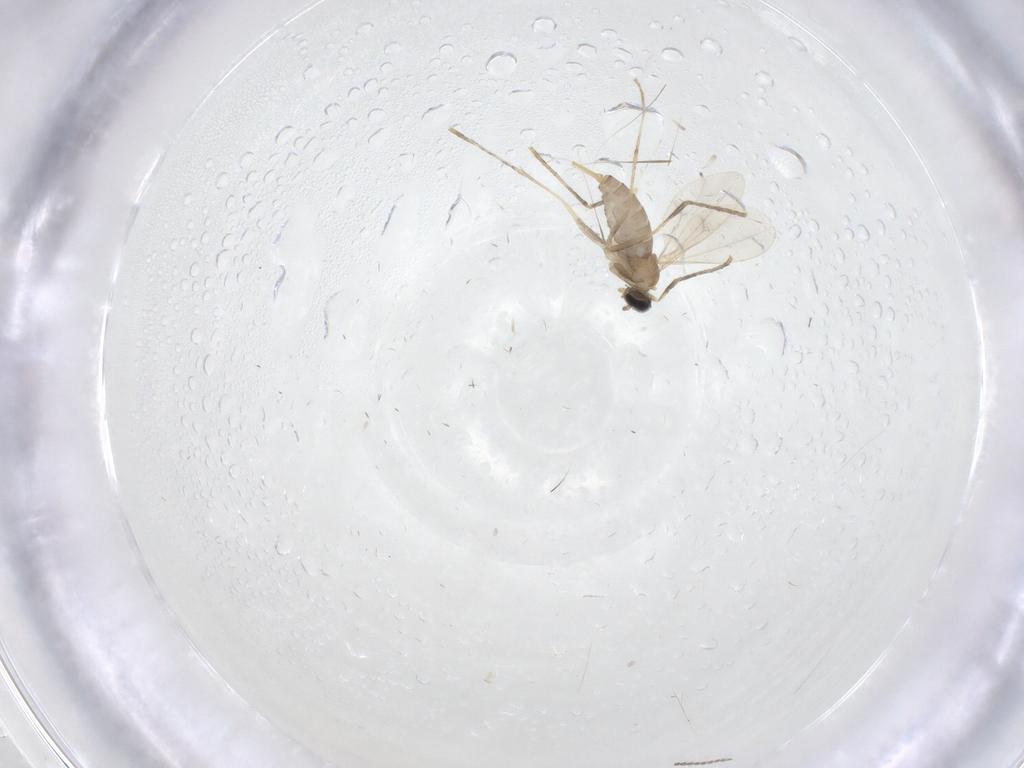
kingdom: Animalia
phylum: Arthropoda
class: Insecta
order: Diptera
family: Cecidomyiidae
